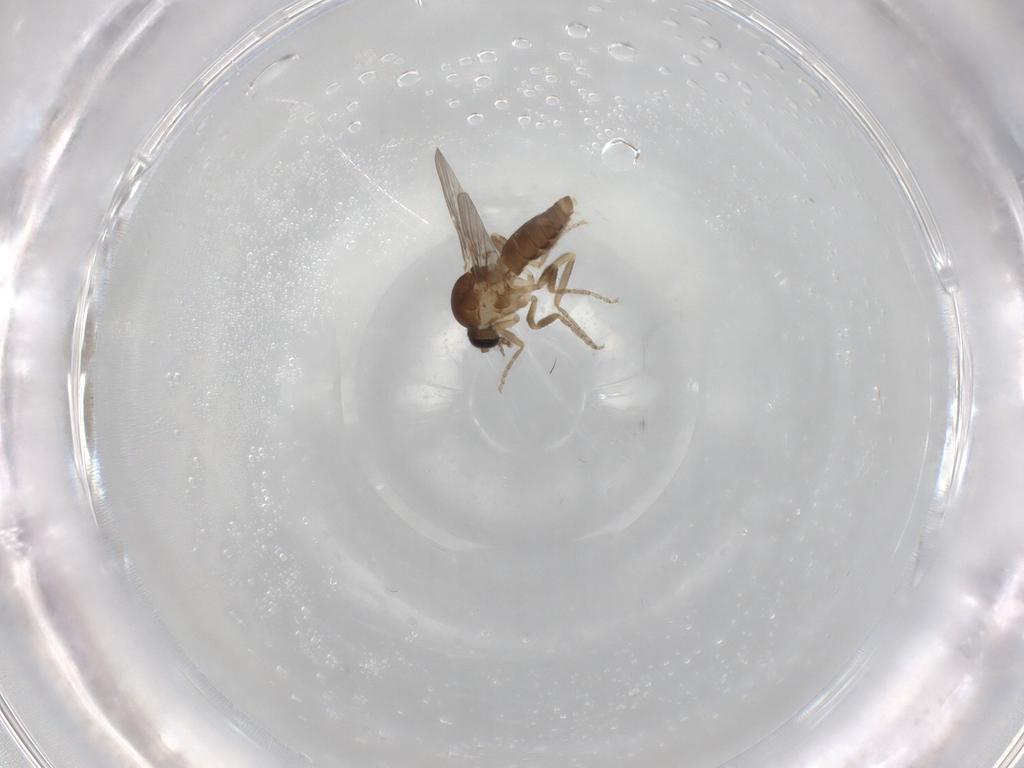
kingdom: Animalia
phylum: Arthropoda
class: Insecta
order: Diptera
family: Ceratopogonidae
